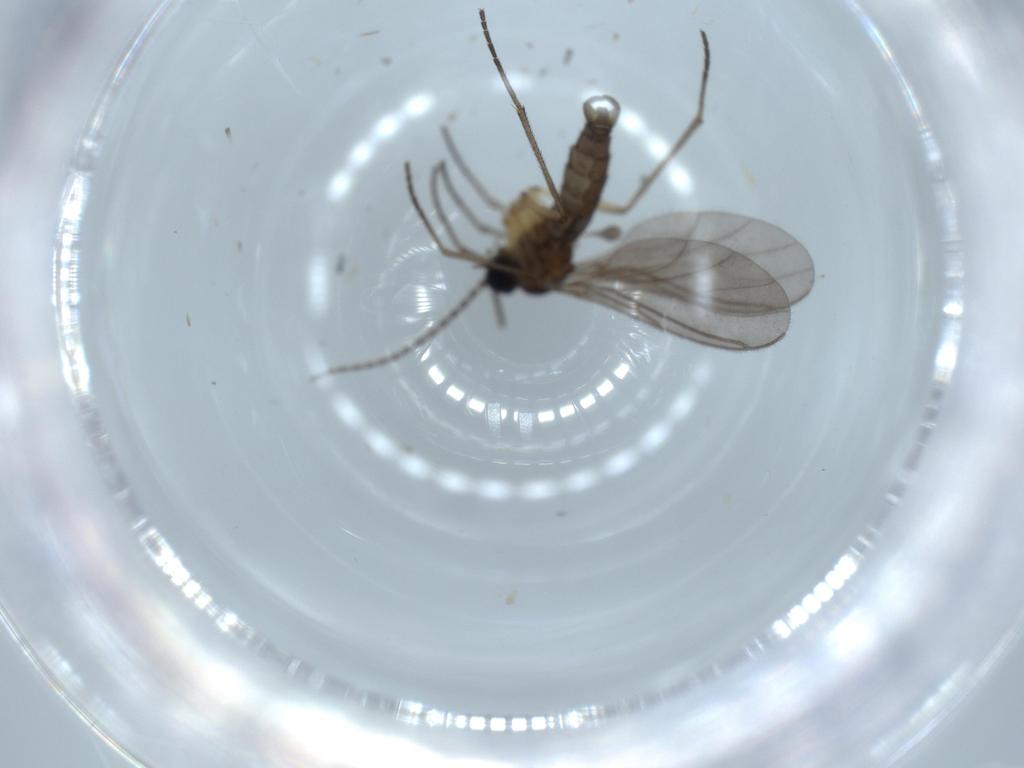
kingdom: Animalia
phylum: Arthropoda
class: Insecta
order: Diptera
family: Sciaridae
